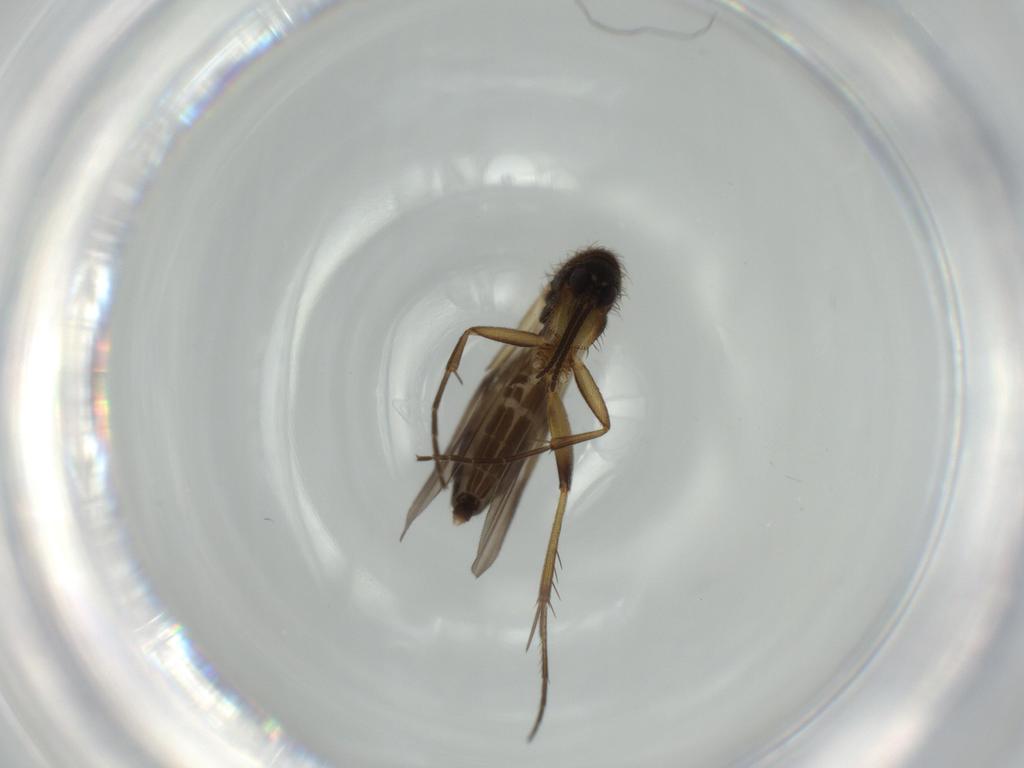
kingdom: Animalia
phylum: Arthropoda
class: Insecta
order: Diptera
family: Mycetophilidae
